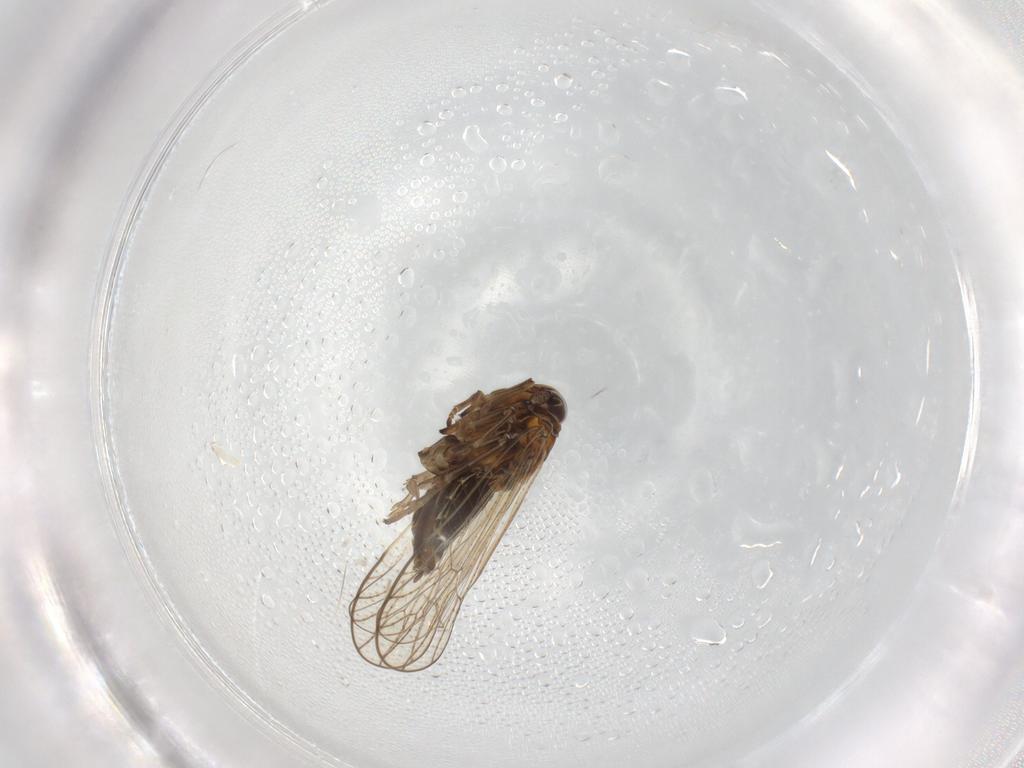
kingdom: Animalia
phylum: Arthropoda
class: Insecta
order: Hemiptera
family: Delphacidae
